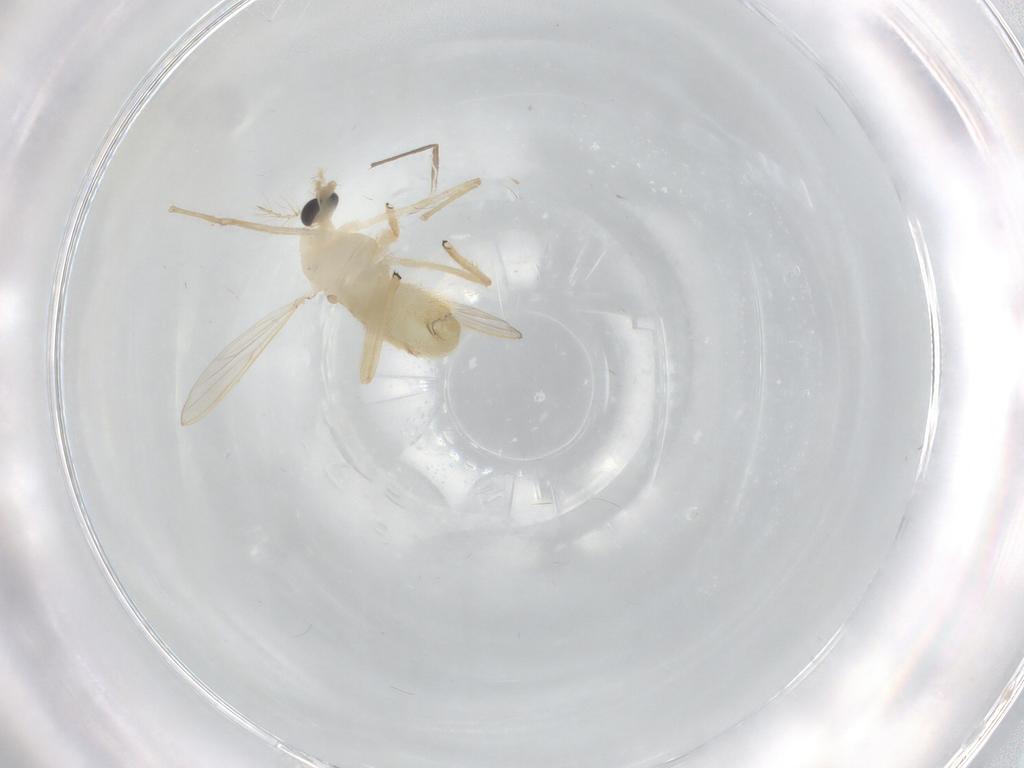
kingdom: Animalia
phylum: Arthropoda
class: Insecta
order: Diptera
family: Chironomidae
